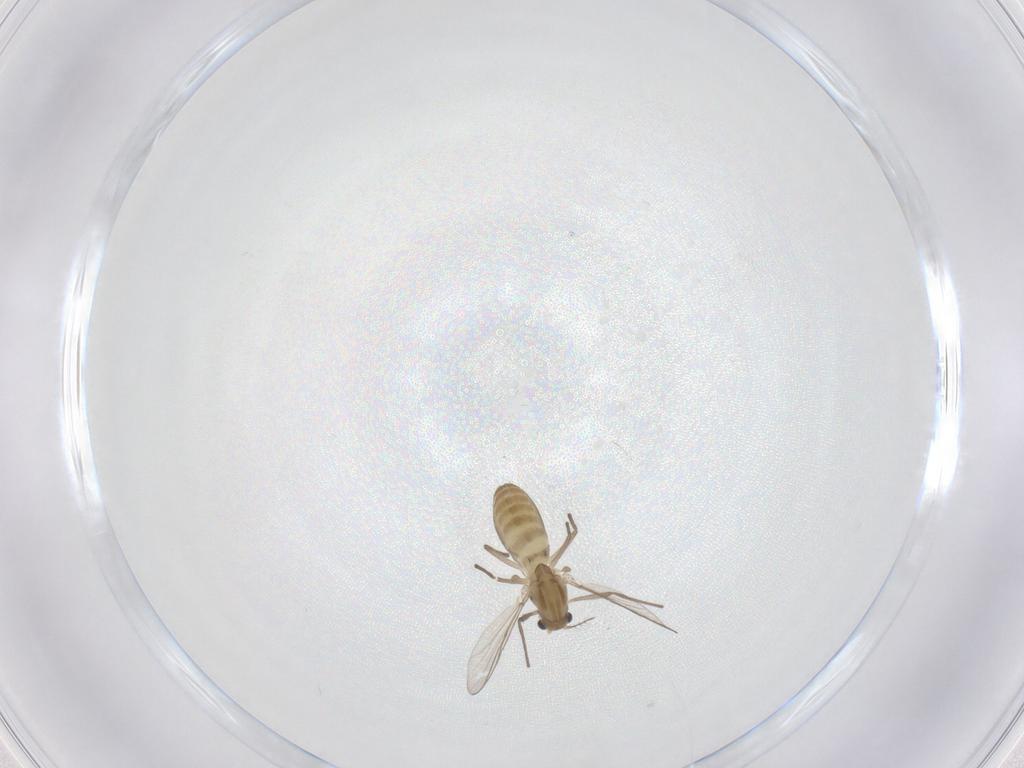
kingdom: Animalia
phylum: Arthropoda
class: Insecta
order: Diptera
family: Chironomidae
